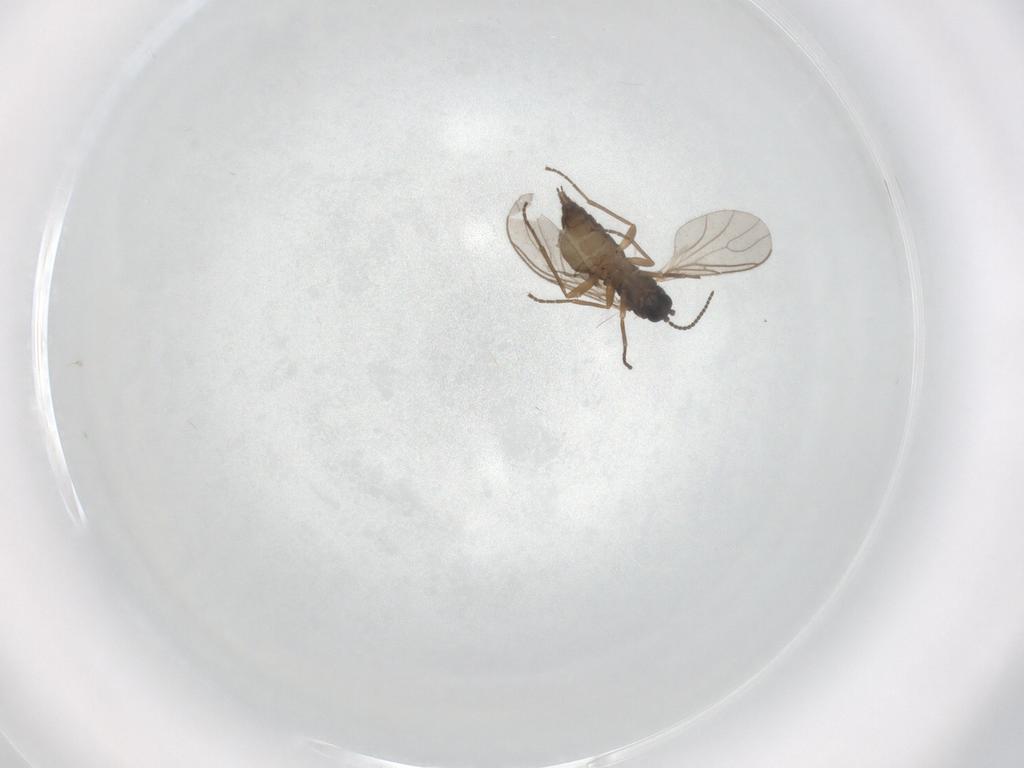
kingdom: Animalia
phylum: Arthropoda
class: Insecta
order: Diptera
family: Sciaridae
